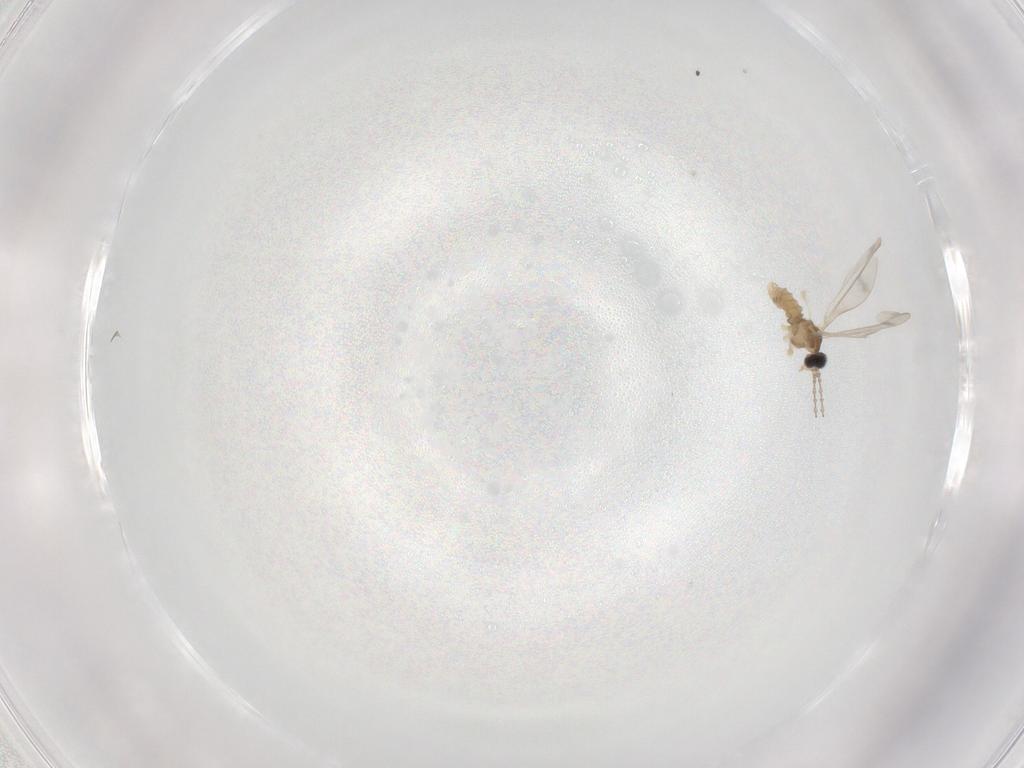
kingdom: Animalia
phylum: Arthropoda
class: Insecta
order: Diptera
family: Cecidomyiidae
